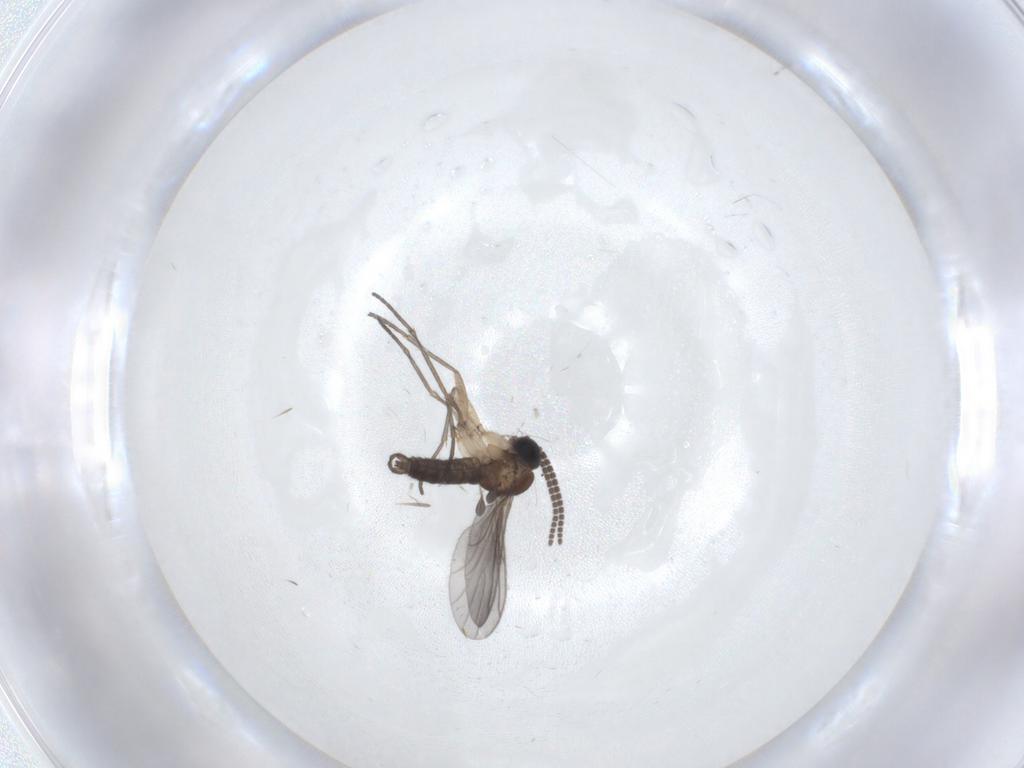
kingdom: Animalia
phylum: Arthropoda
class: Insecta
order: Diptera
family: Sciaridae
